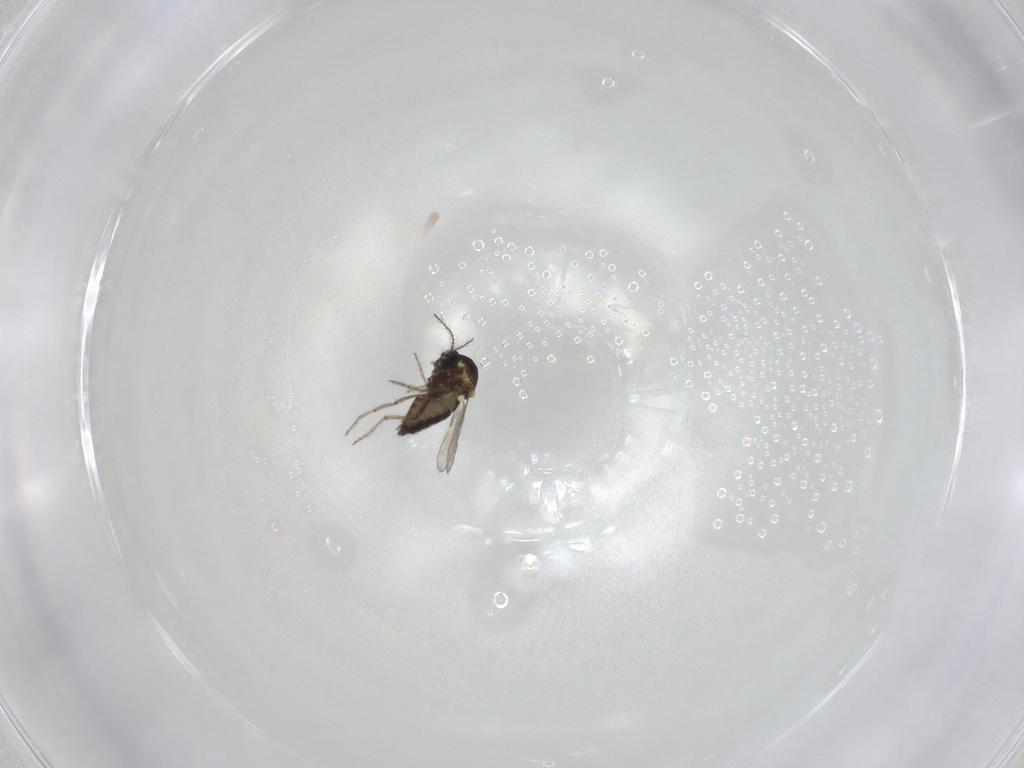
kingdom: Animalia
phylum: Arthropoda
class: Insecta
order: Diptera
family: Ceratopogonidae
